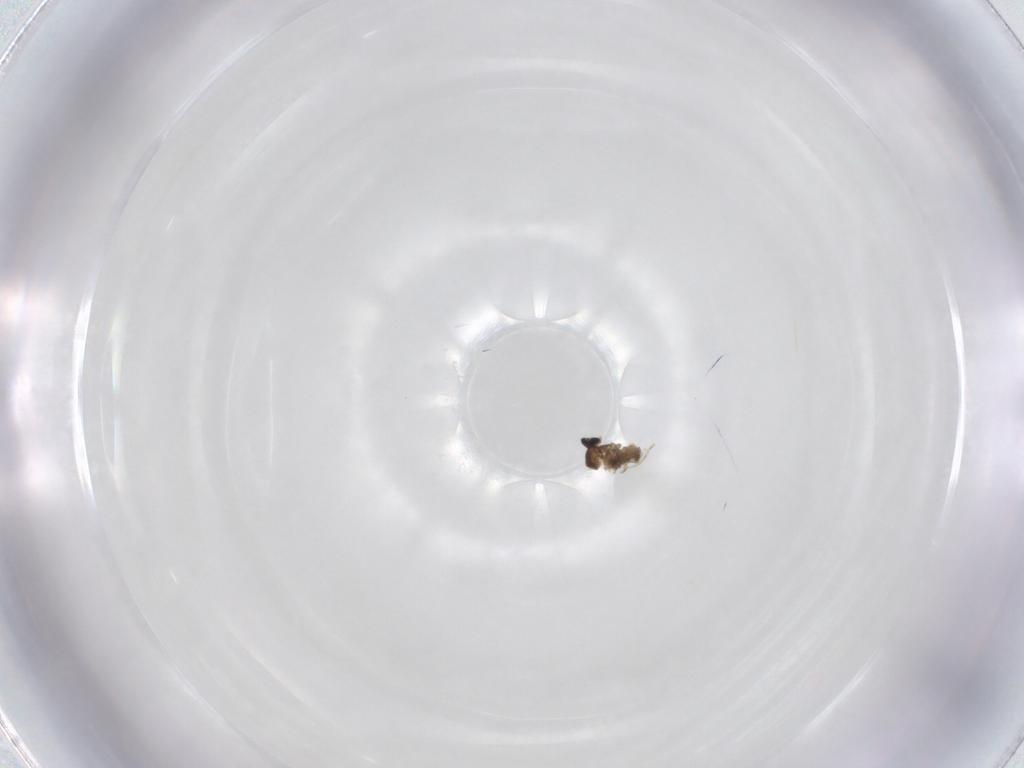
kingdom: Animalia
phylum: Arthropoda
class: Insecta
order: Diptera
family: Cecidomyiidae
